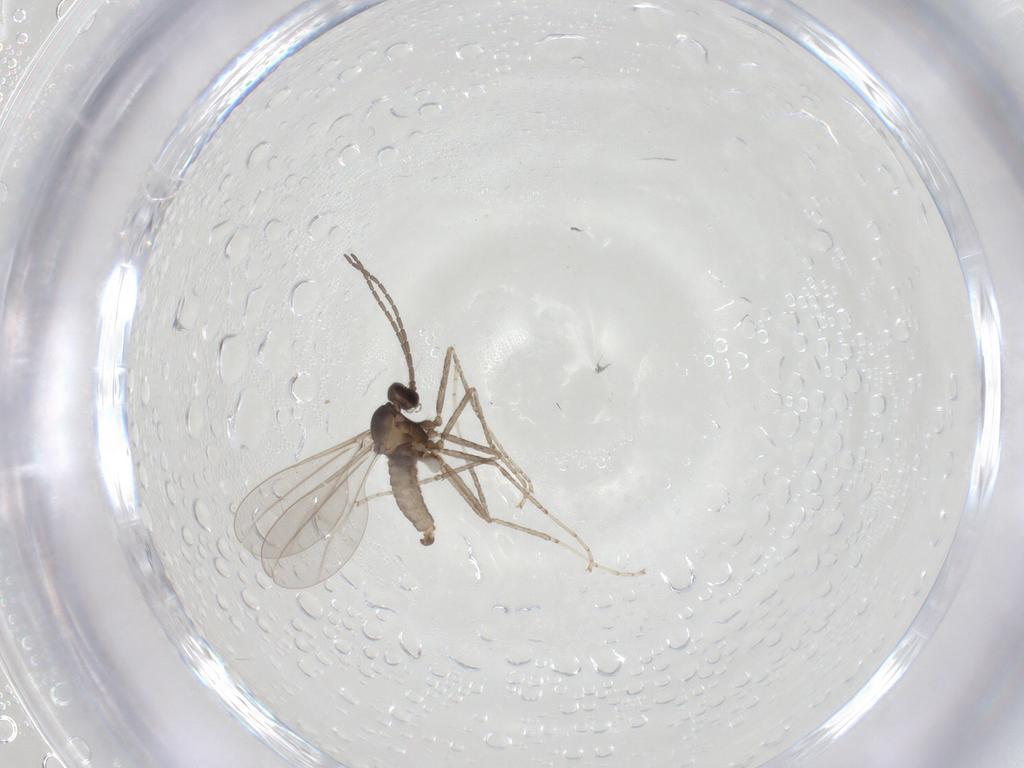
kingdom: Animalia
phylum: Arthropoda
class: Insecta
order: Diptera
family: Cecidomyiidae
